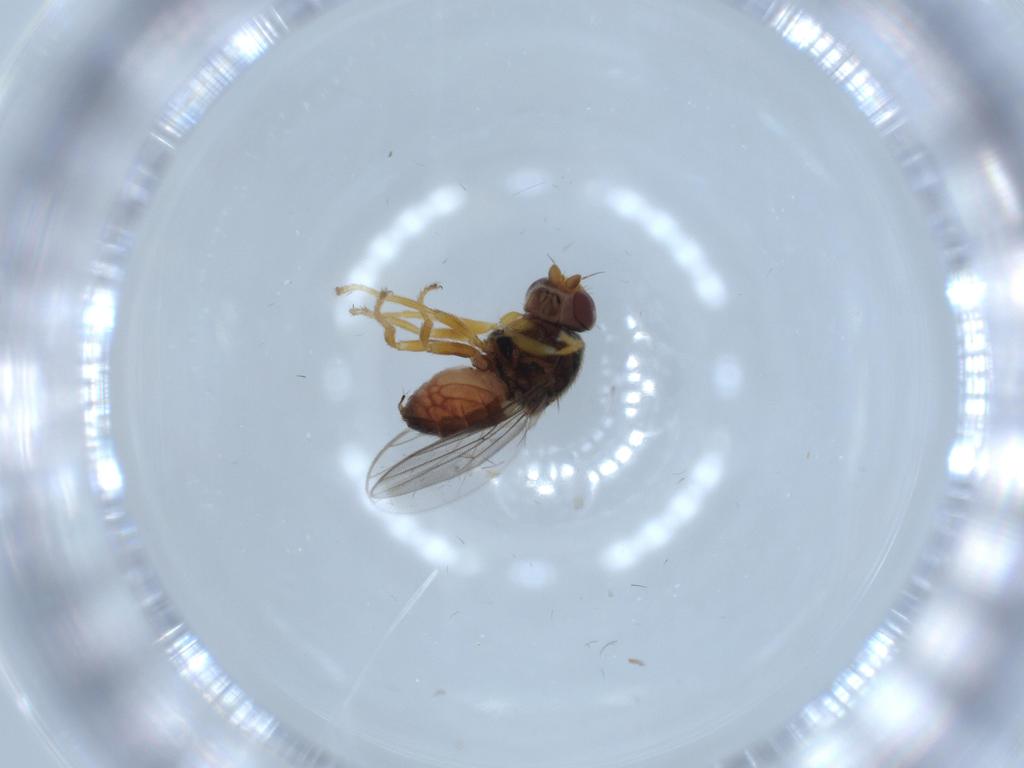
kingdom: Animalia
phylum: Arthropoda
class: Insecta
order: Diptera
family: Chloropidae
